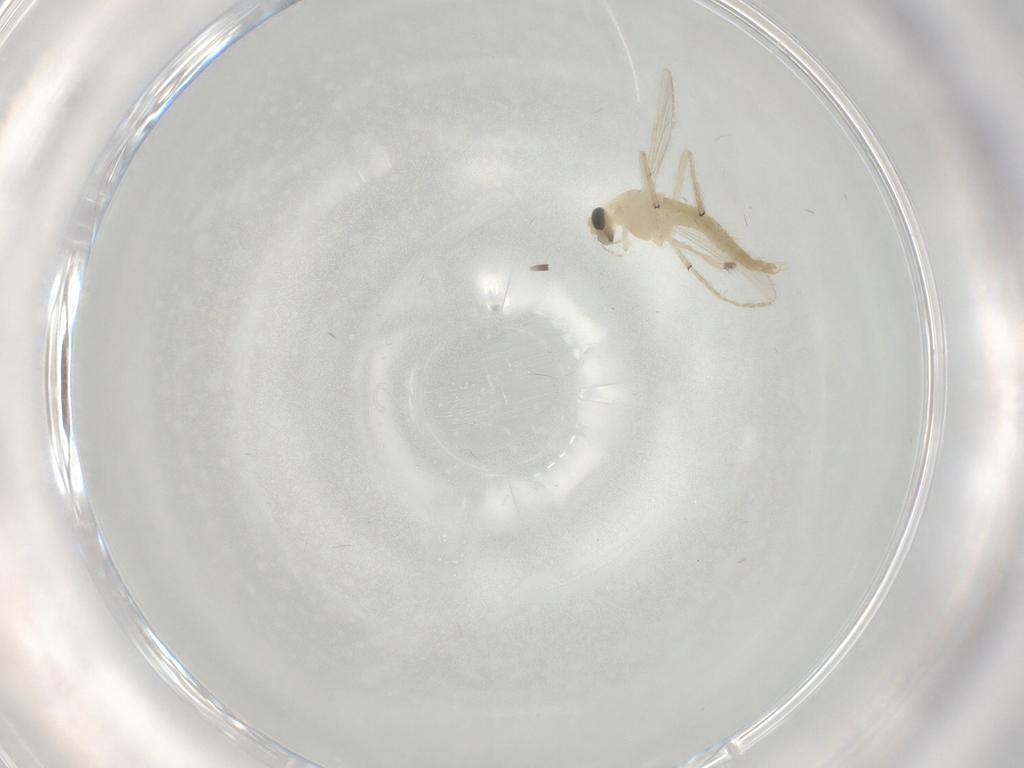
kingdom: Animalia
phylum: Arthropoda
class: Insecta
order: Diptera
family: Chironomidae
